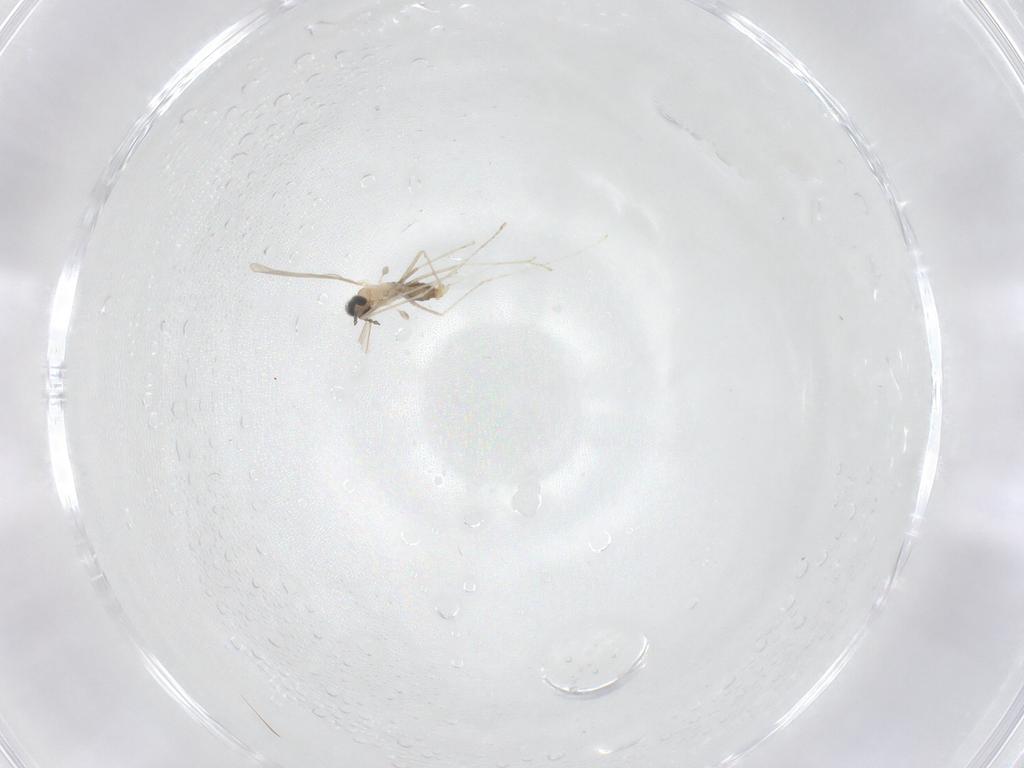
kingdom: Animalia
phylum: Arthropoda
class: Insecta
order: Diptera
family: Cecidomyiidae
